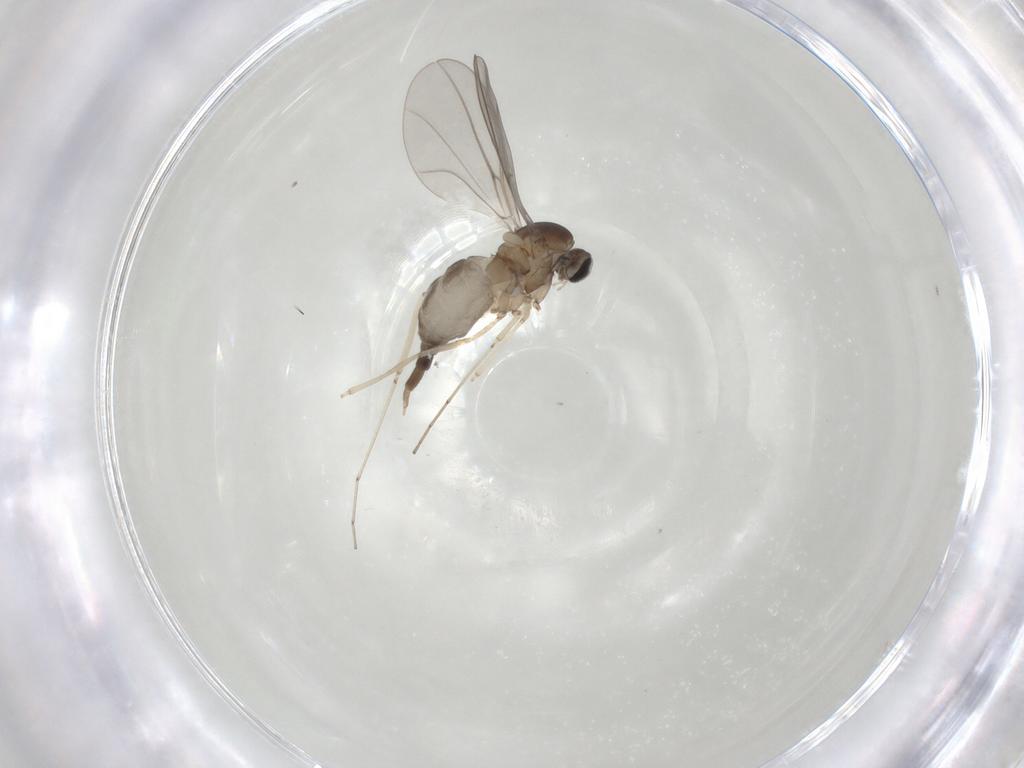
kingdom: Animalia
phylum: Arthropoda
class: Insecta
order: Diptera
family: Cecidomyiidae
